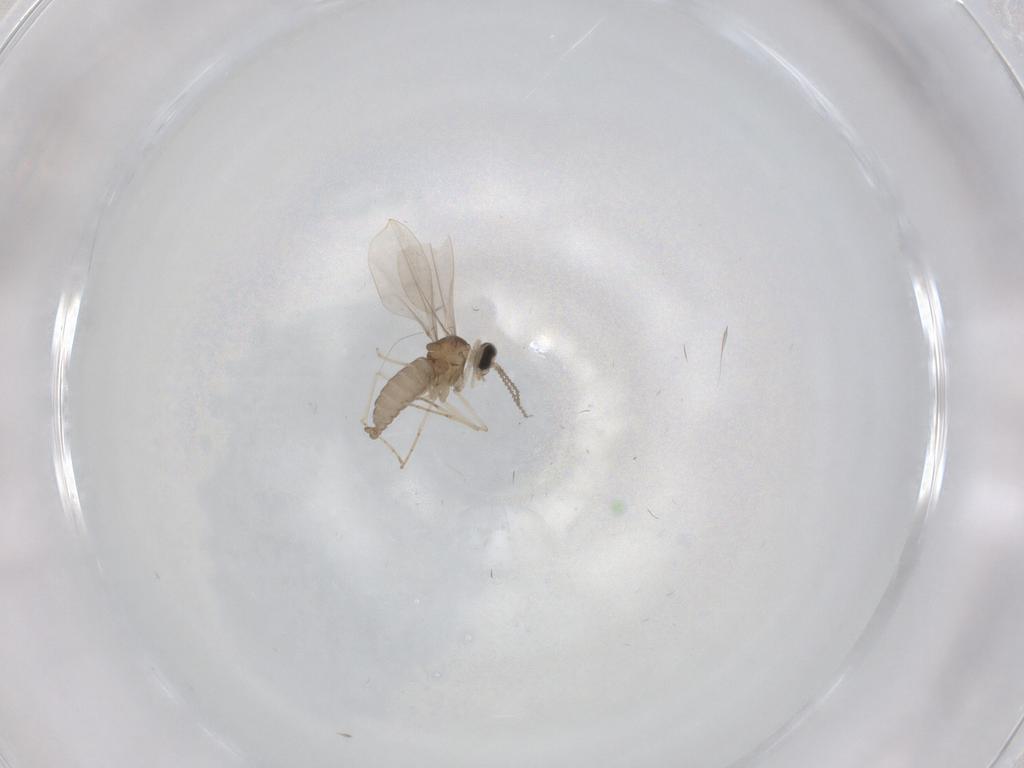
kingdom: Animalia
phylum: Arthropoda
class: Insecta
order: Diptera
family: Cecidomyiidae
